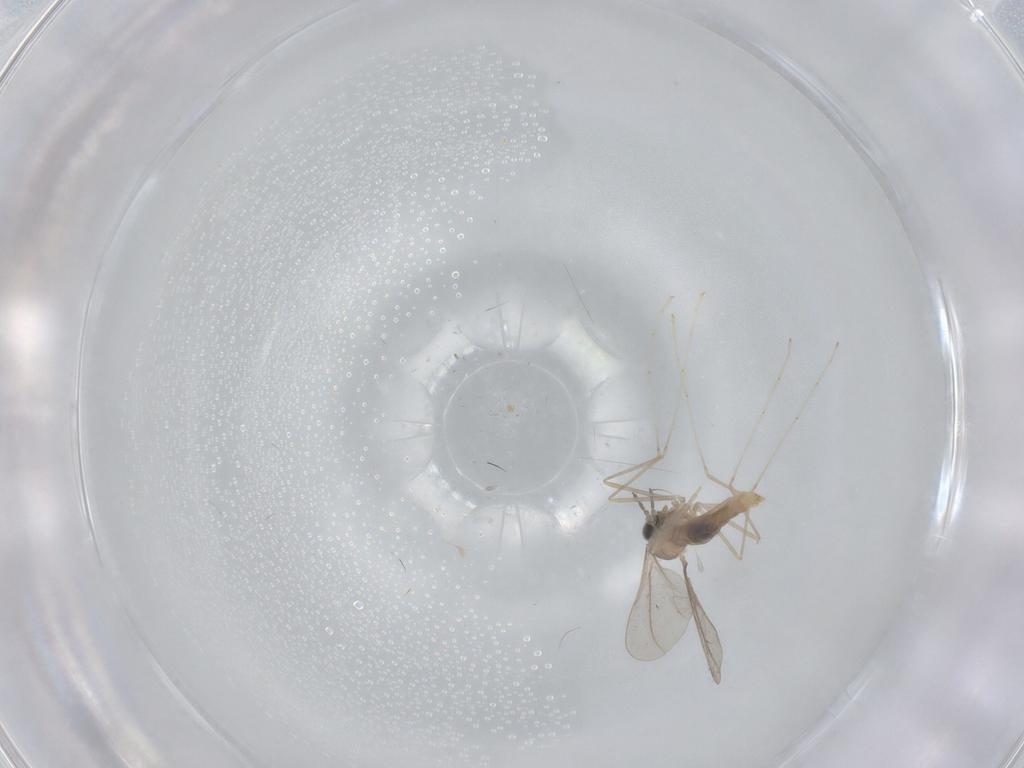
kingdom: Animalia
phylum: Arthropoda
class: Insecta
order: Diptera
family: Cecidomyiidae
